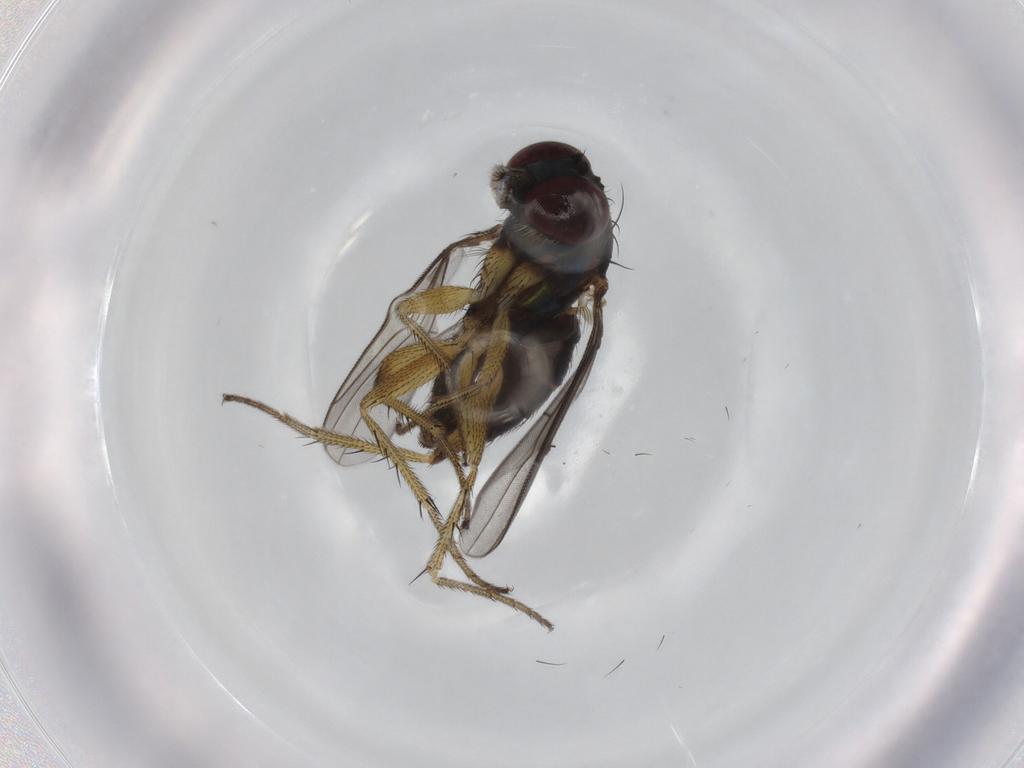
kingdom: Animalia
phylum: Arthropoda
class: Insecta
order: Diptera
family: Dolichopodidae
